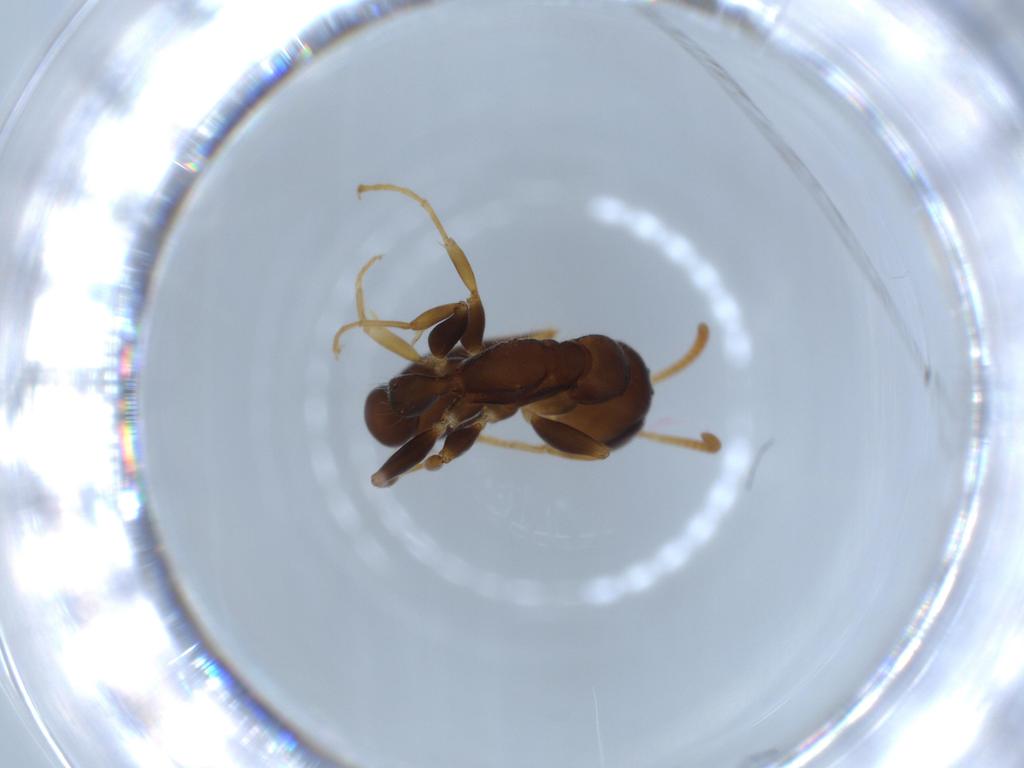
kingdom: Animalia
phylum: Arthropoda
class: Insecta
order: Hymenoptera
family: Formicidae
